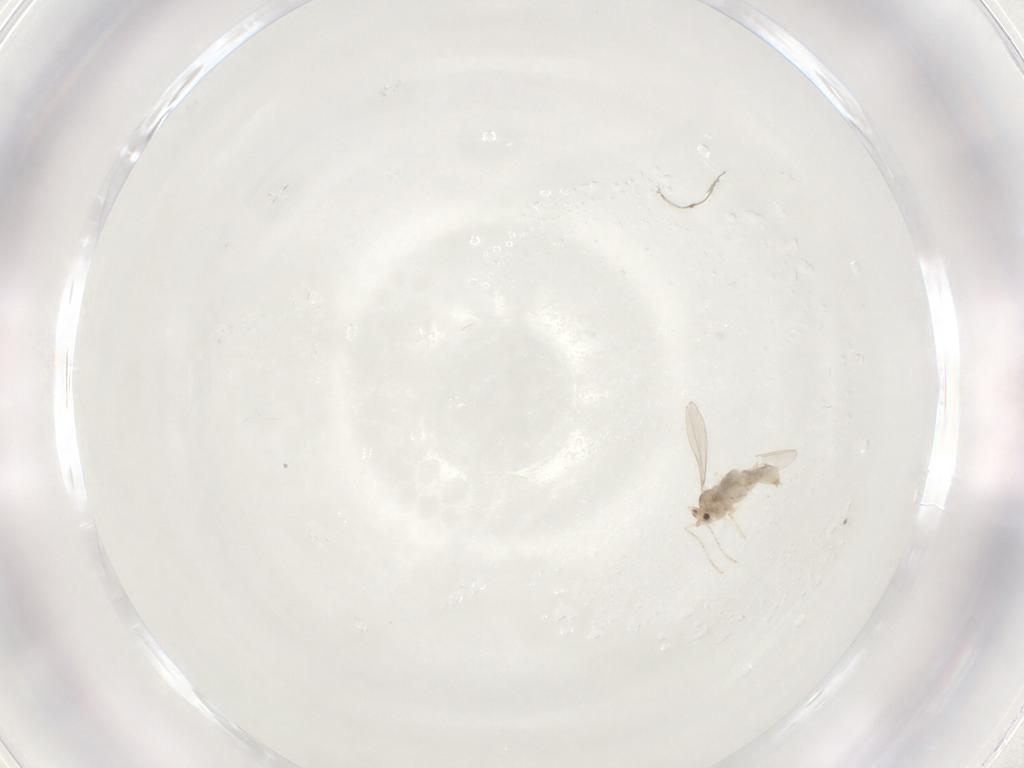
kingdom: Animalia
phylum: Arthropoda
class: Insecta
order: Diptera
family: Cecidomyiidae
